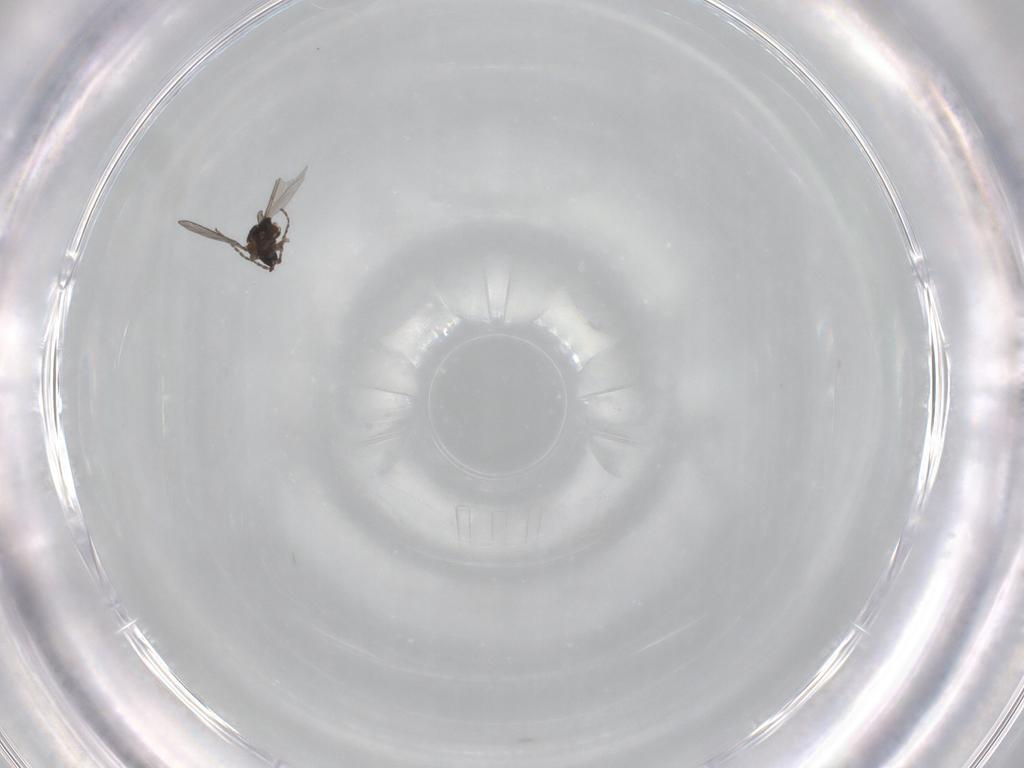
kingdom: Animalia
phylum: Arthropoda
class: Insecta
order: Diptera
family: Sciaridae
